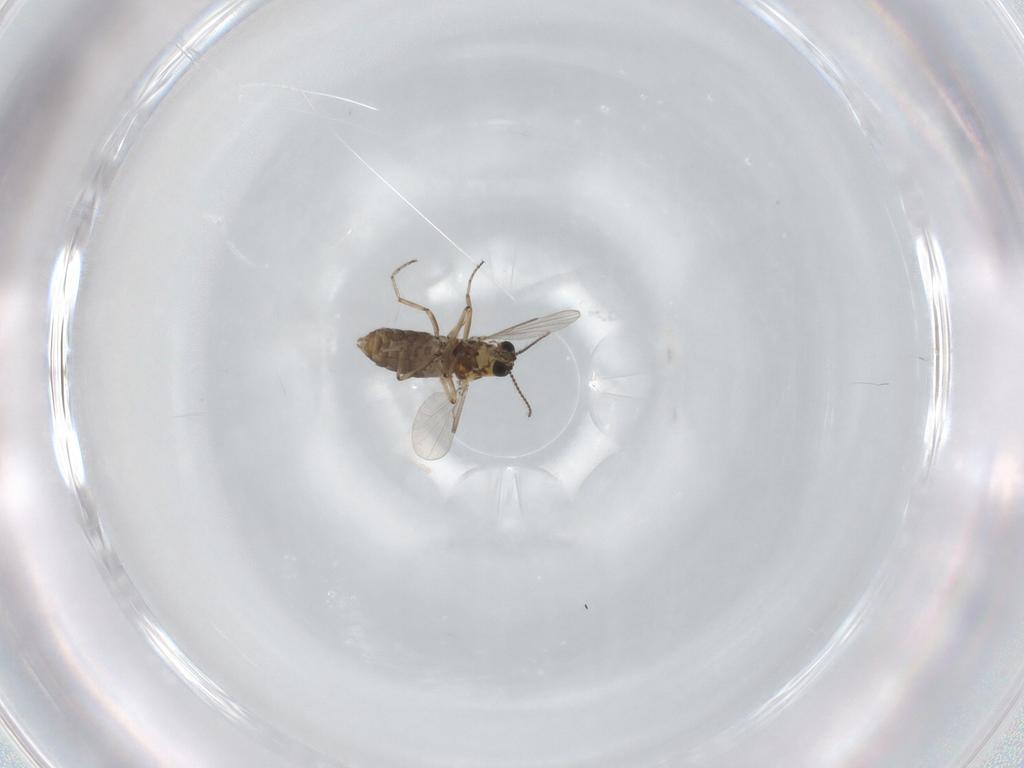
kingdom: Animalia
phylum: Arthropoda
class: Insecta
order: Diptera
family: Ceratopogonidae
